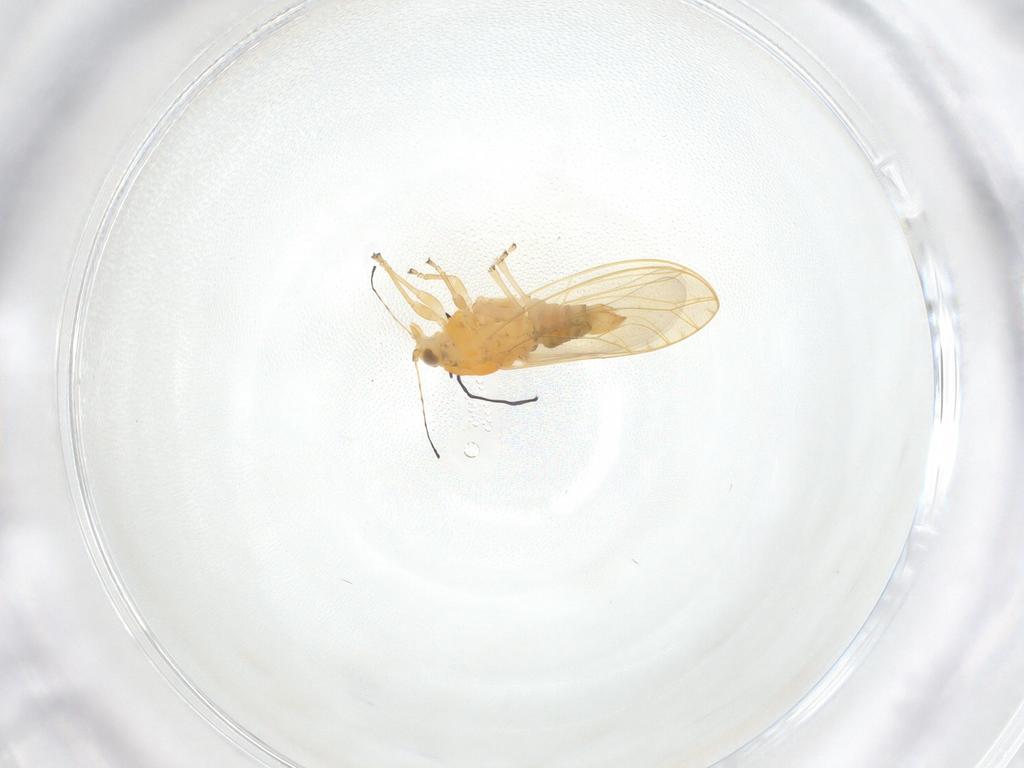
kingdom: Animalia
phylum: Arthropoda
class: Insecta
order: Hemiptera
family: Triozidae
